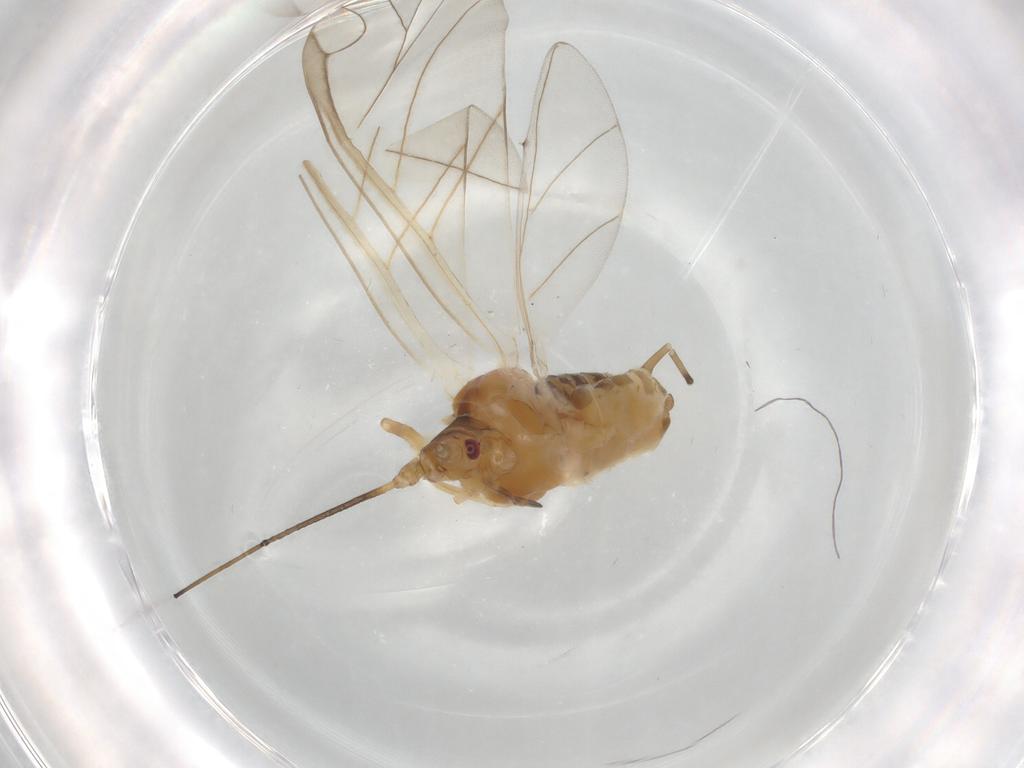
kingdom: Animalia
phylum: Arthropoda
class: Insecta
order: Hemiptera
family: Aphididae
